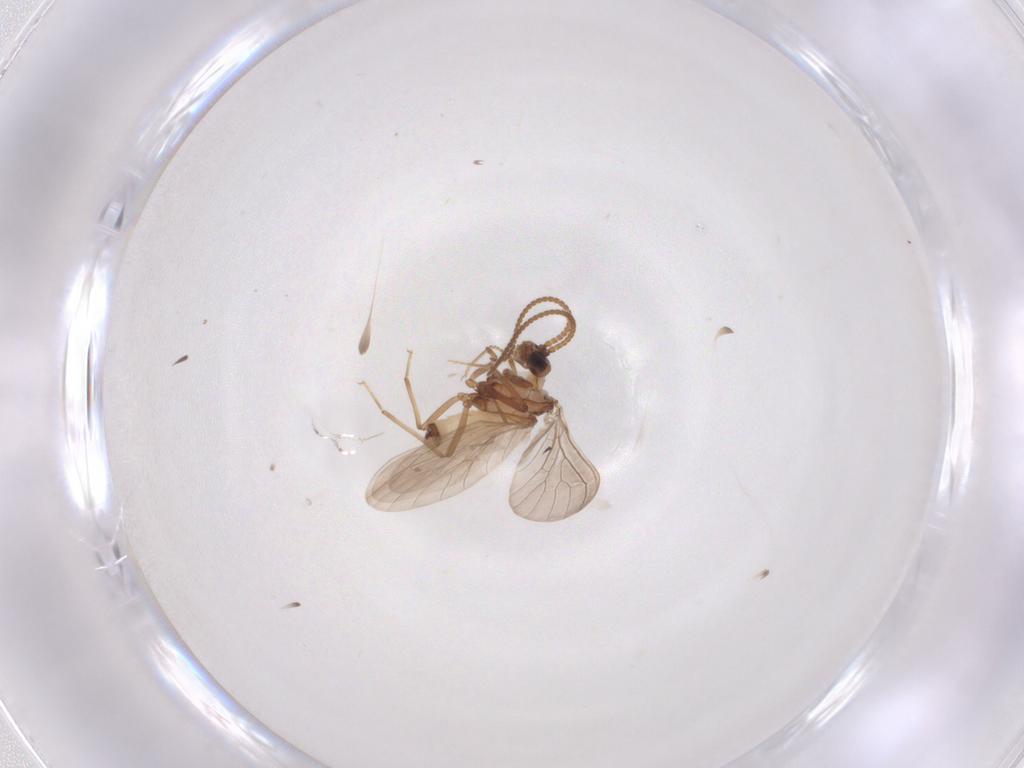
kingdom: Animalia
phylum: Arthropoda
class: Insecta
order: Neuroptera
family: Coniopterygidae
